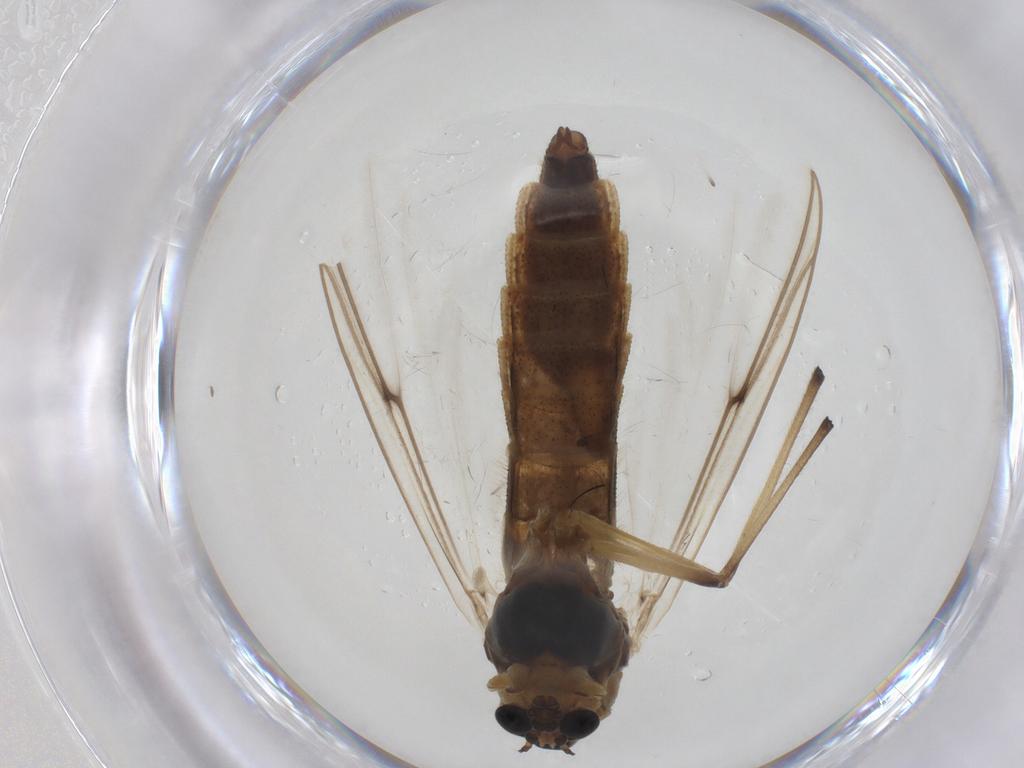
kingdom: Animalia
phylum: Arthropoda
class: Insecta
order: Diptera
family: Chironomidae
